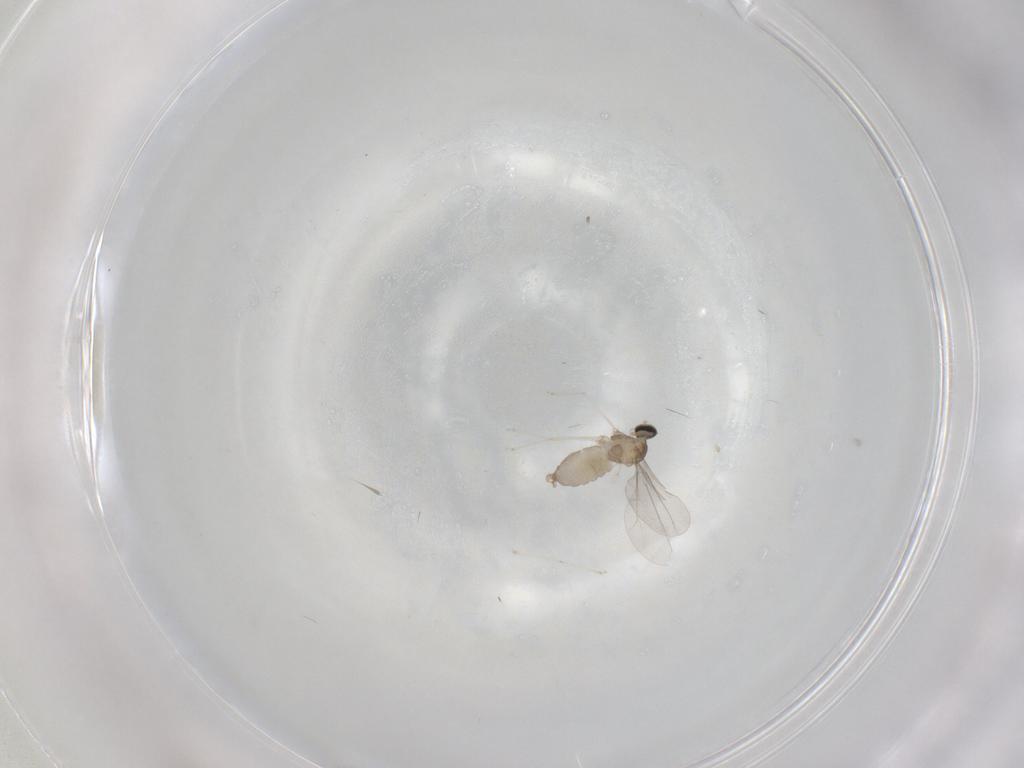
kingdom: Animalia
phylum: Arthropoda
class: Insecta
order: Diptera
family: Cecidomyiidae
